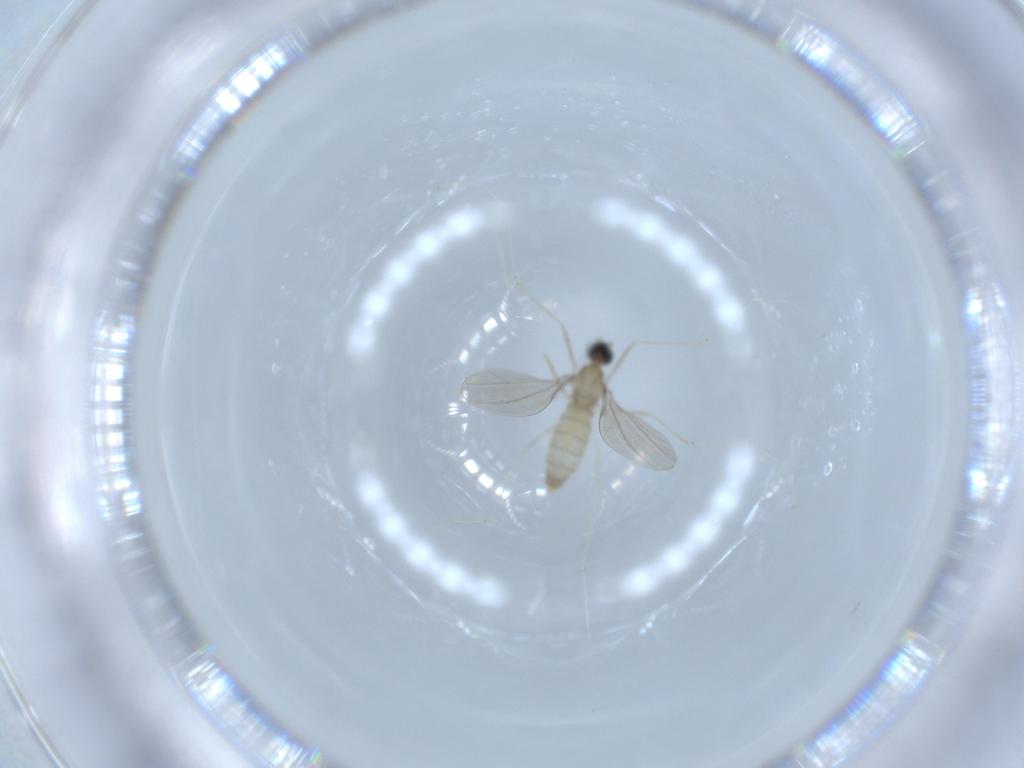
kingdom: Animalia
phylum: Arthropoda
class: Insecta
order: Diptera
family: Cecidomyiidae
